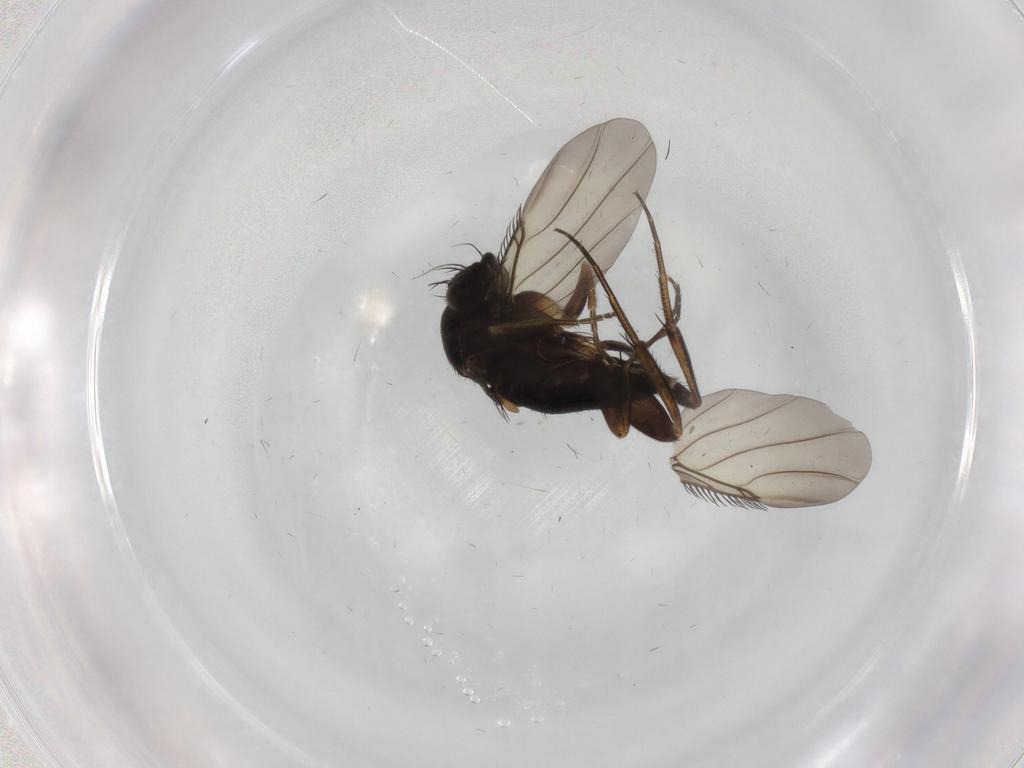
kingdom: Animalia
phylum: Arthropoda
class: Insecta
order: Diptera
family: Phoridae
